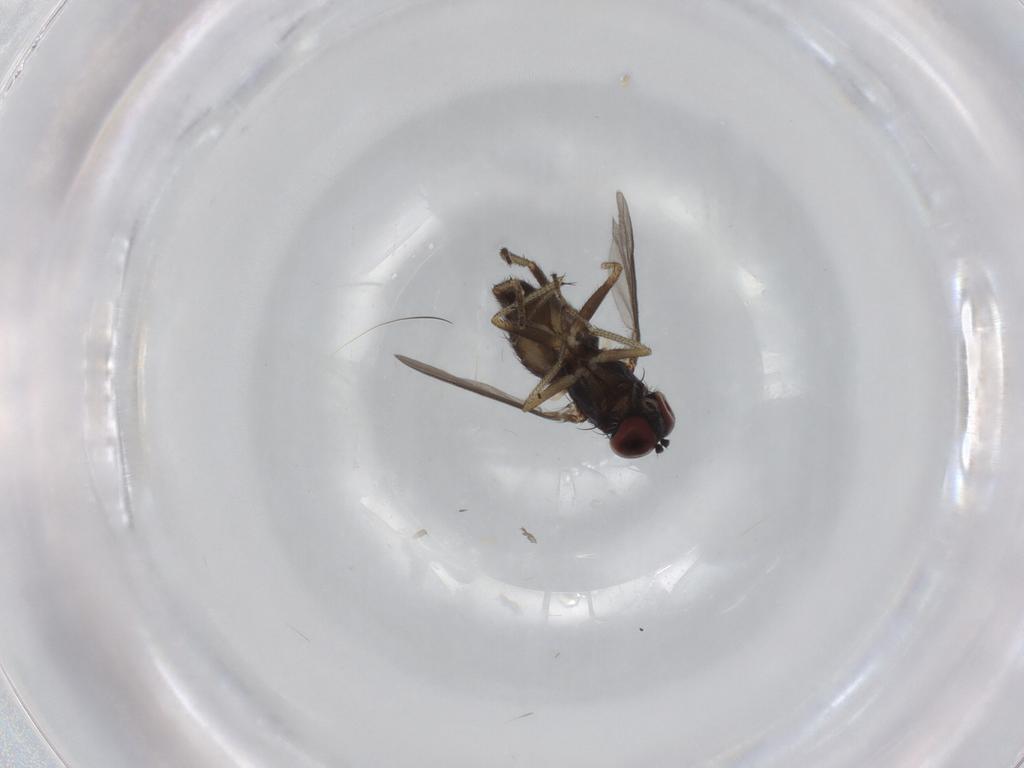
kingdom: Animalia
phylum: Arthropoda
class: Insecta
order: Diptera
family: Dolichopodidae
